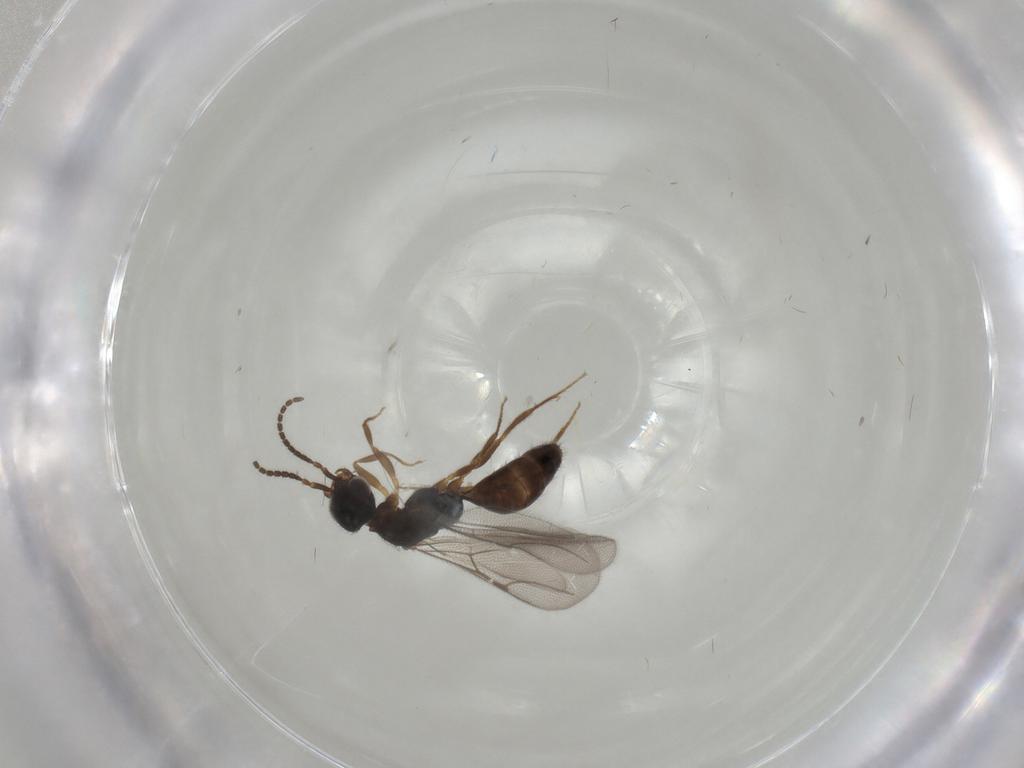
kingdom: Animalia
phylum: Arthropoda
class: Insecta
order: Hymenoptera
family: Bethylidae
